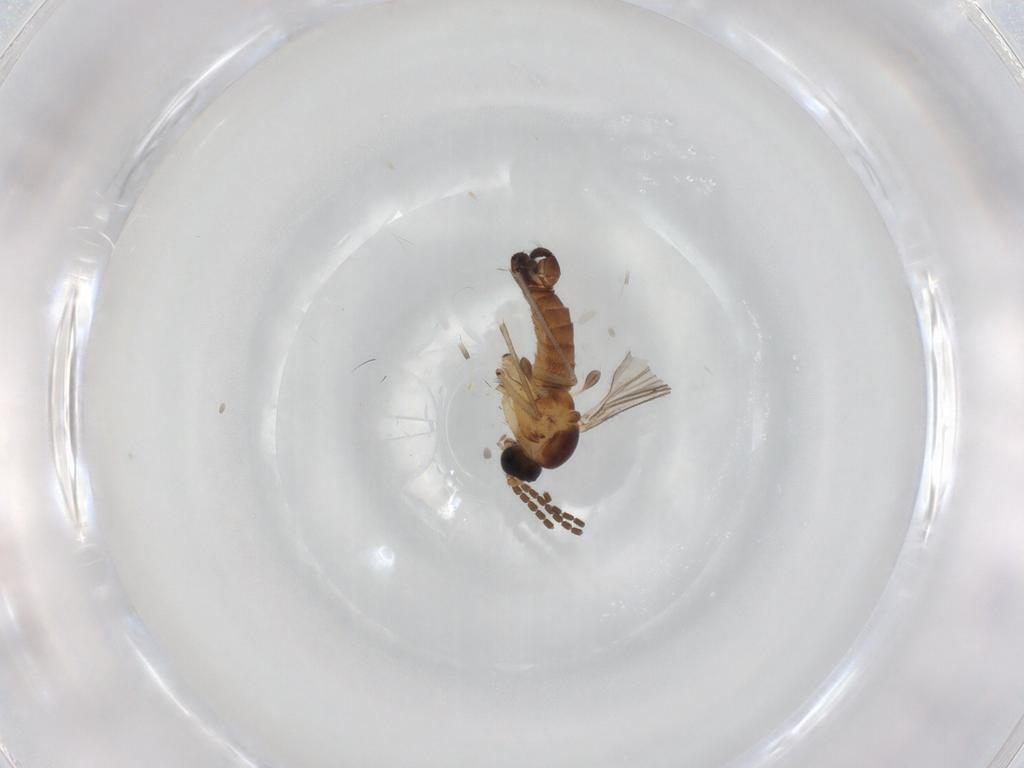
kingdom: Animalia
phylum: Arthropoda
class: Insecta
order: Diptera
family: Sciaridae
